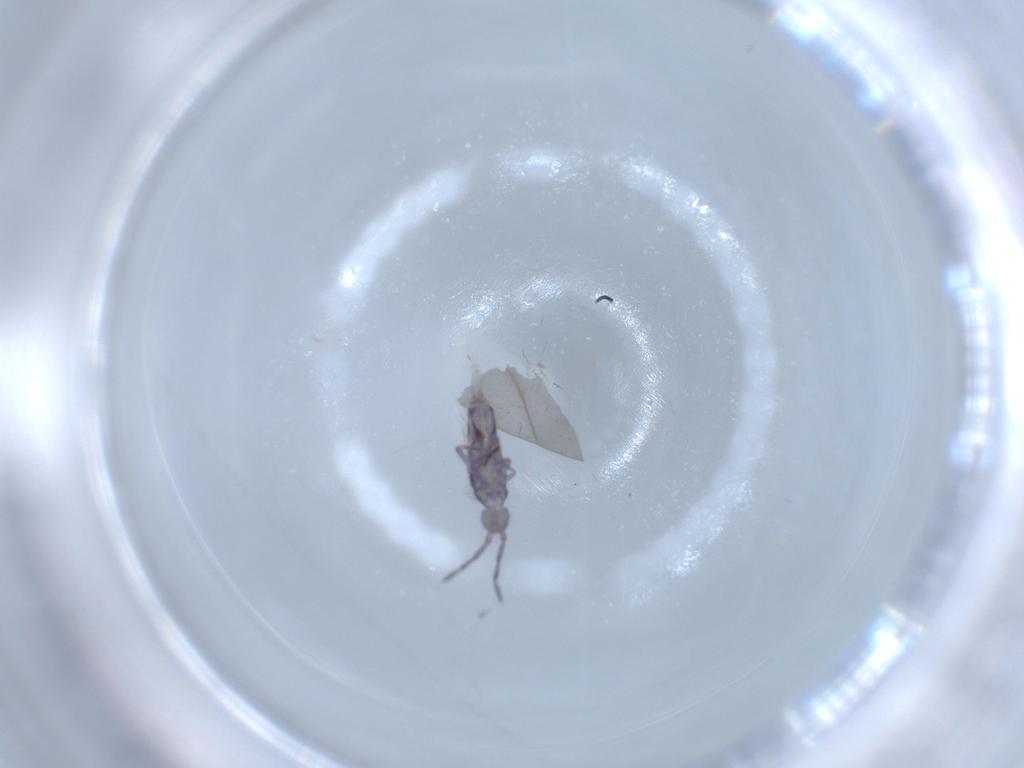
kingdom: Animalia
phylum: Arthropoda
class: Collembola
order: Entomobryomorpha
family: Entomobryidae
